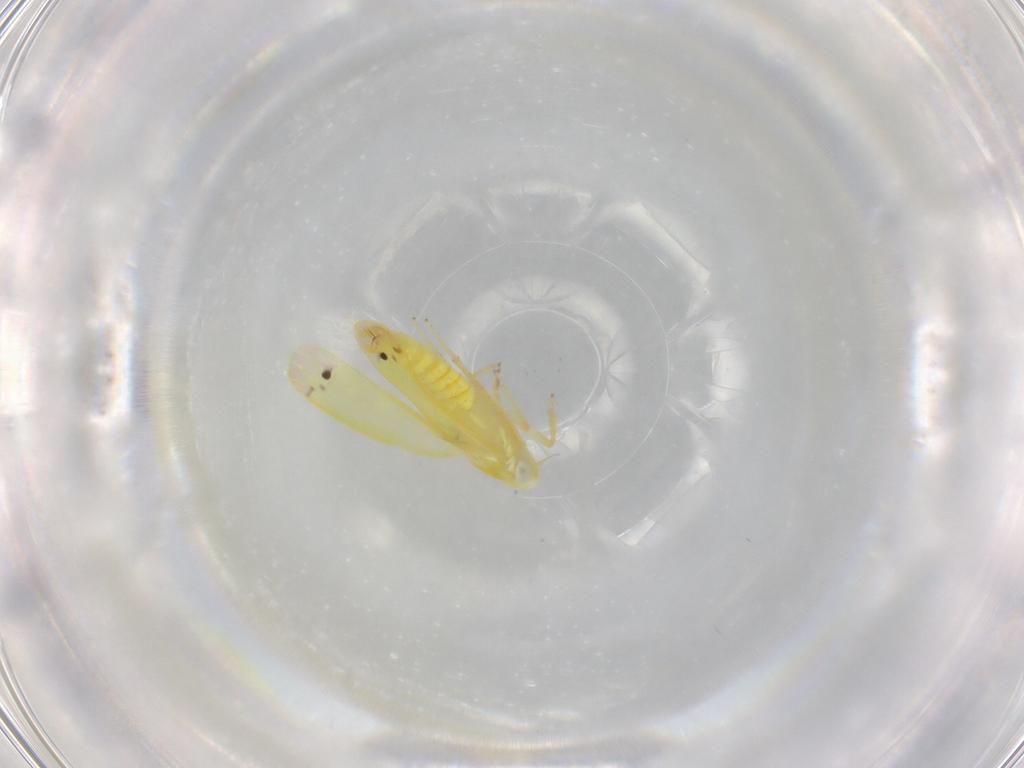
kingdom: Animalia
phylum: Arthropoda
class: Insecta
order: Hemiptera
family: Cicadellidae
